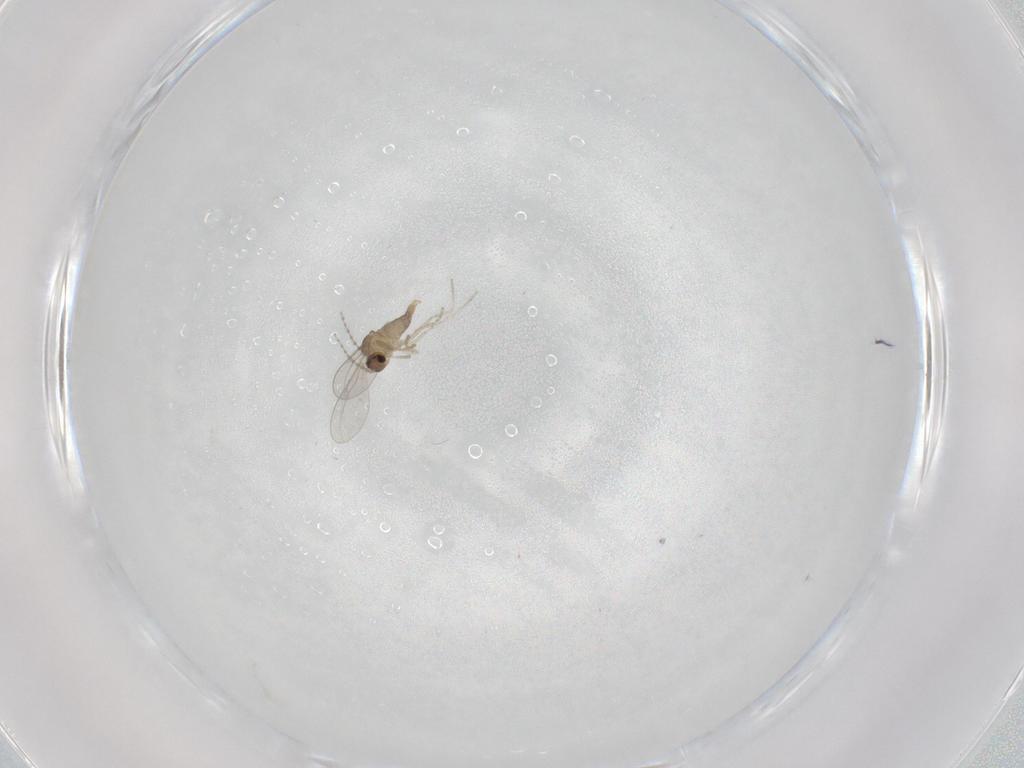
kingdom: Animalia
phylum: Arthropoda
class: Insecta
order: Diptera
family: Cecidomyiidae
